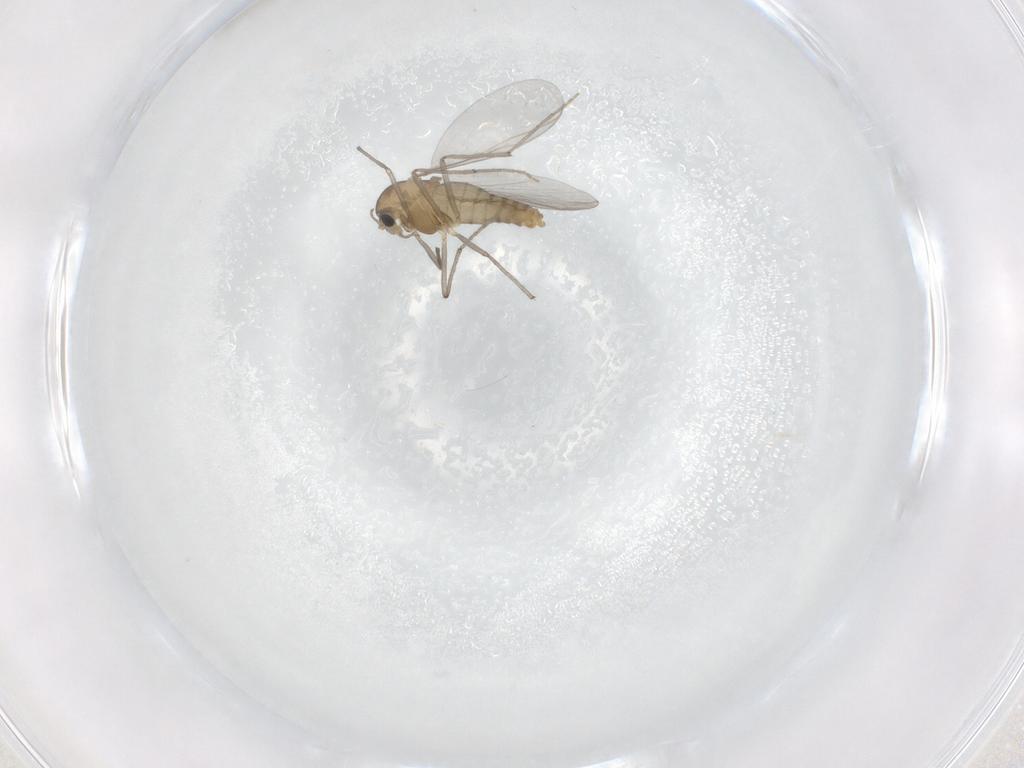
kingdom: Animalia
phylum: Arthropoda
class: Insecta
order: Diptera
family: Chironomidae
